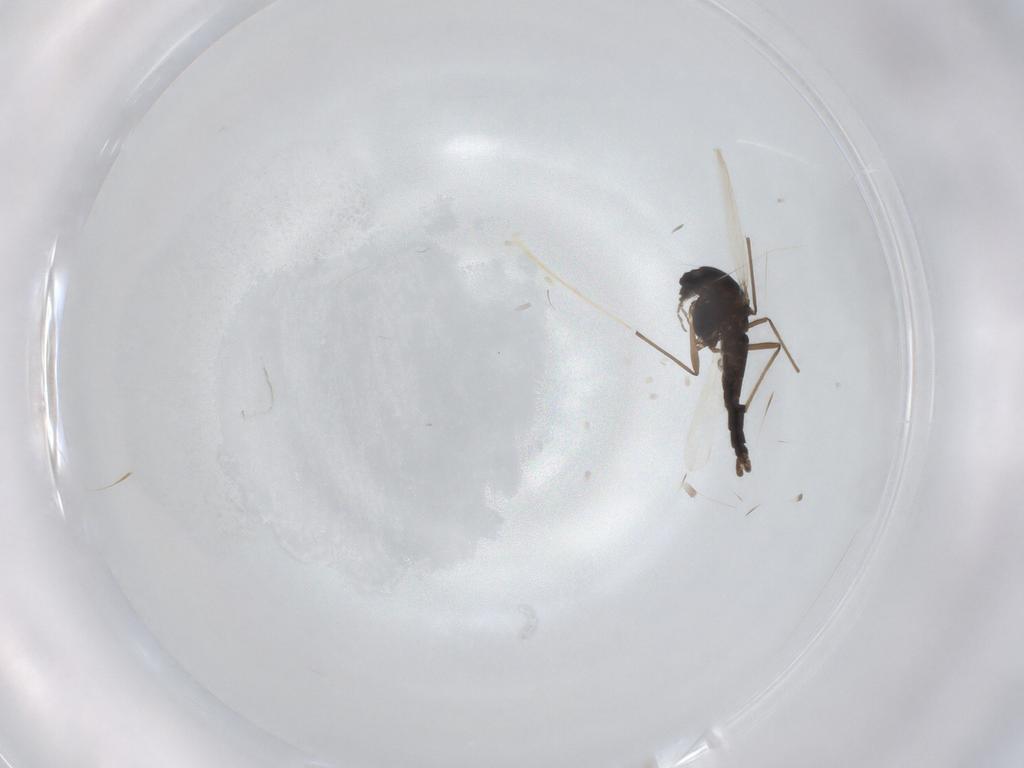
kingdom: Animalia
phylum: Arthropoda
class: Insecta
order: Diptera
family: Chironomidae
